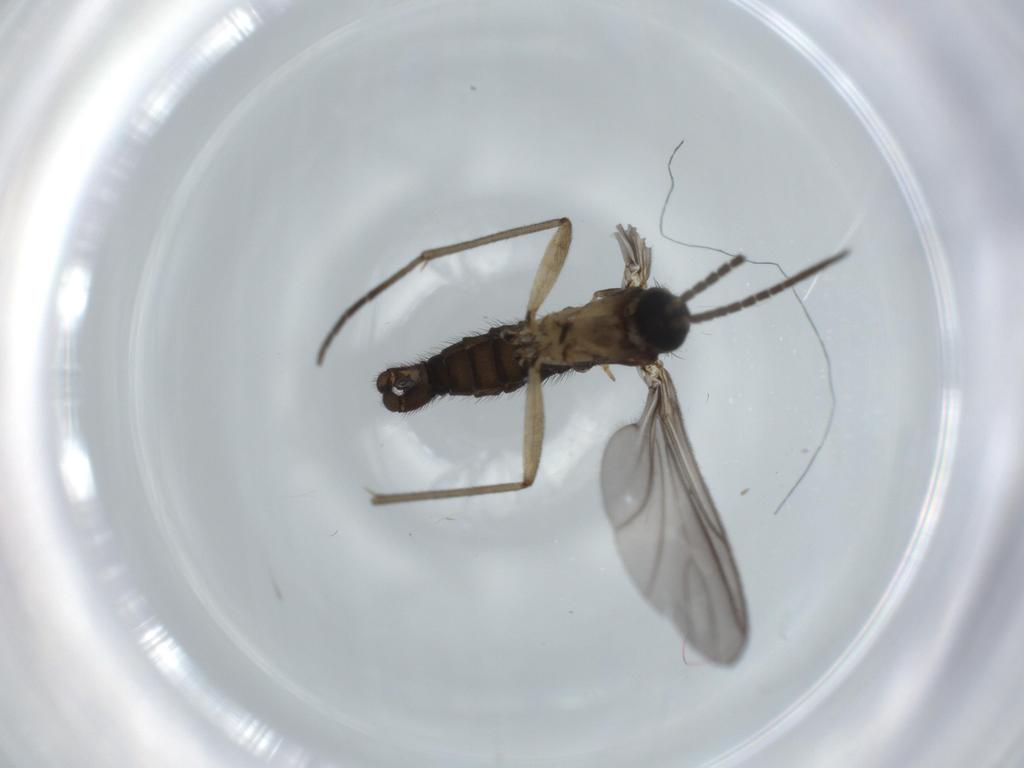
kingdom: Animalia
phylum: Arthropoda
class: Insecta
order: Diptera
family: Sciaridae
